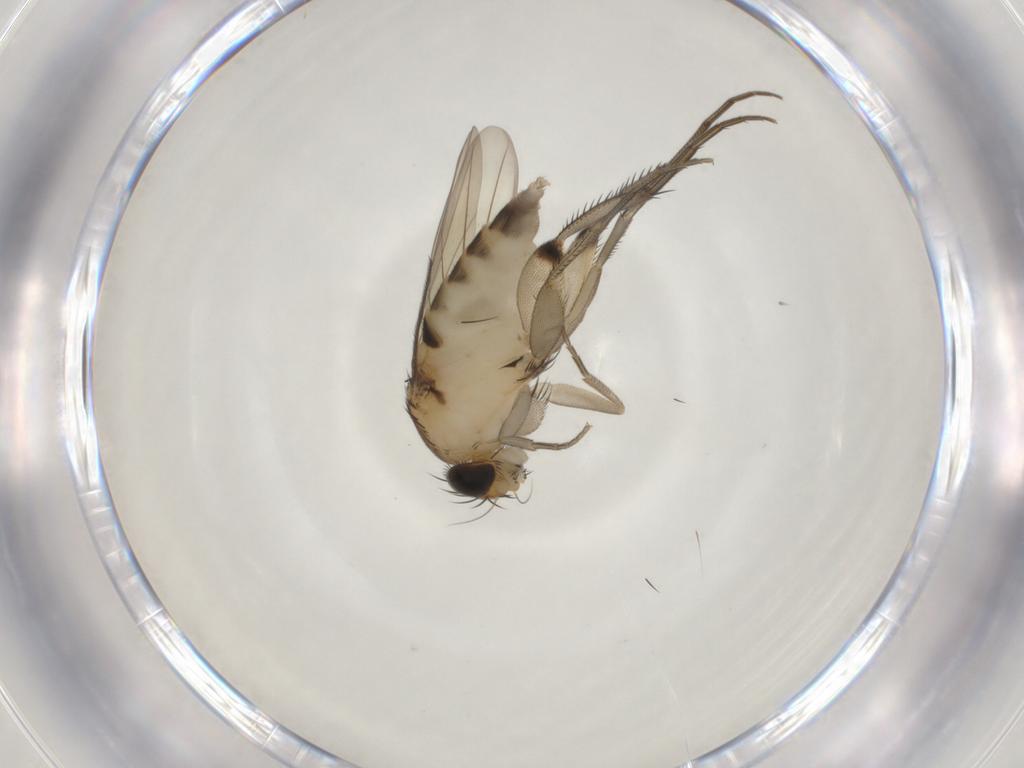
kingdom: Animalia
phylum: Arthropoda
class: Insecta
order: Diptera
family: Phoridae
